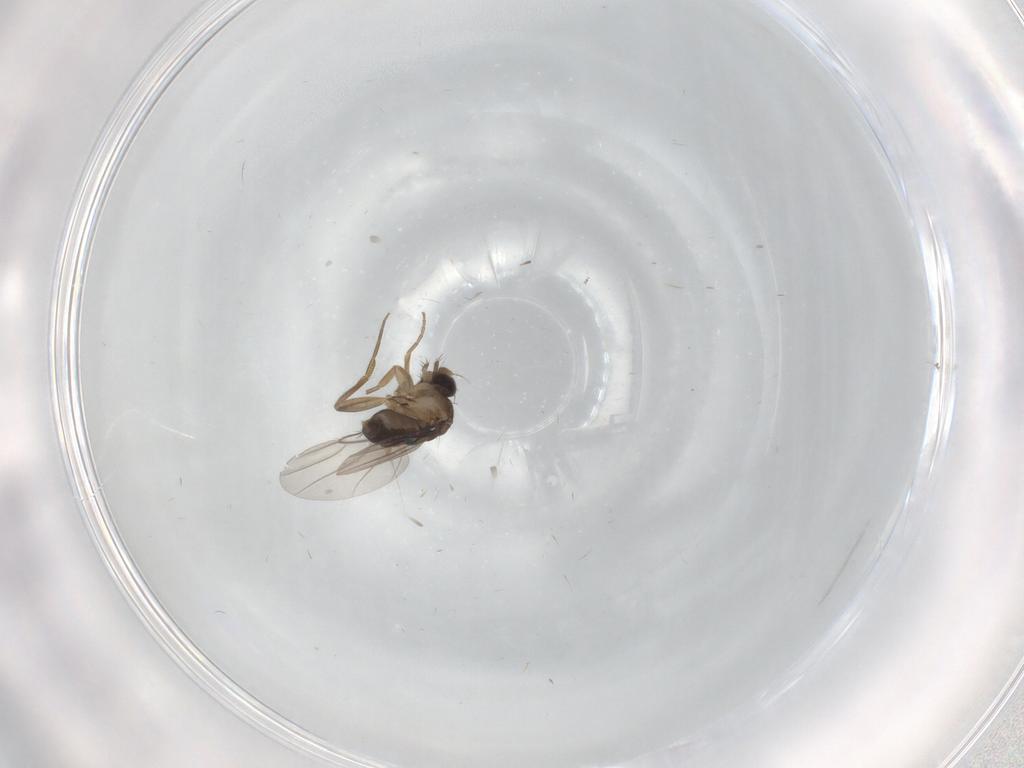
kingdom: Animalia
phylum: Arthropoda
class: Insecta
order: Diptera
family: Phoridae
